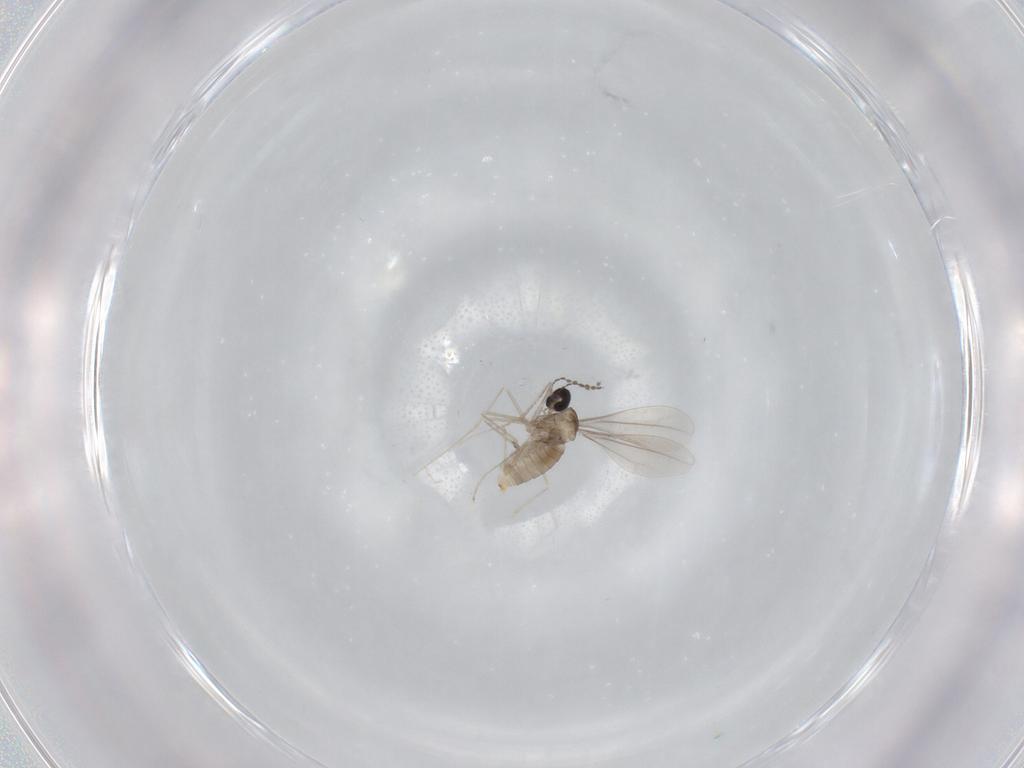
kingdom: Animalia
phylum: Arthropoda
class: Insecta
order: Diptera
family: Cecidomyiidae
